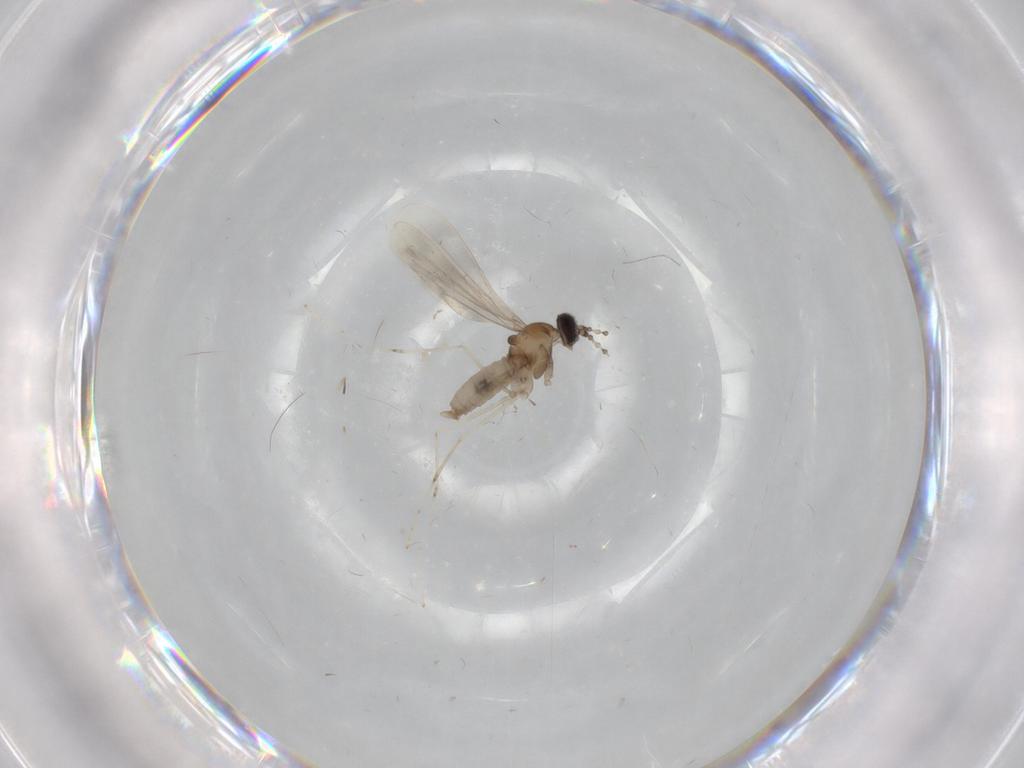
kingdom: Animalia
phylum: Arthropoda
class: Insecta
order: Diptera
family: Cecidomyiidae
